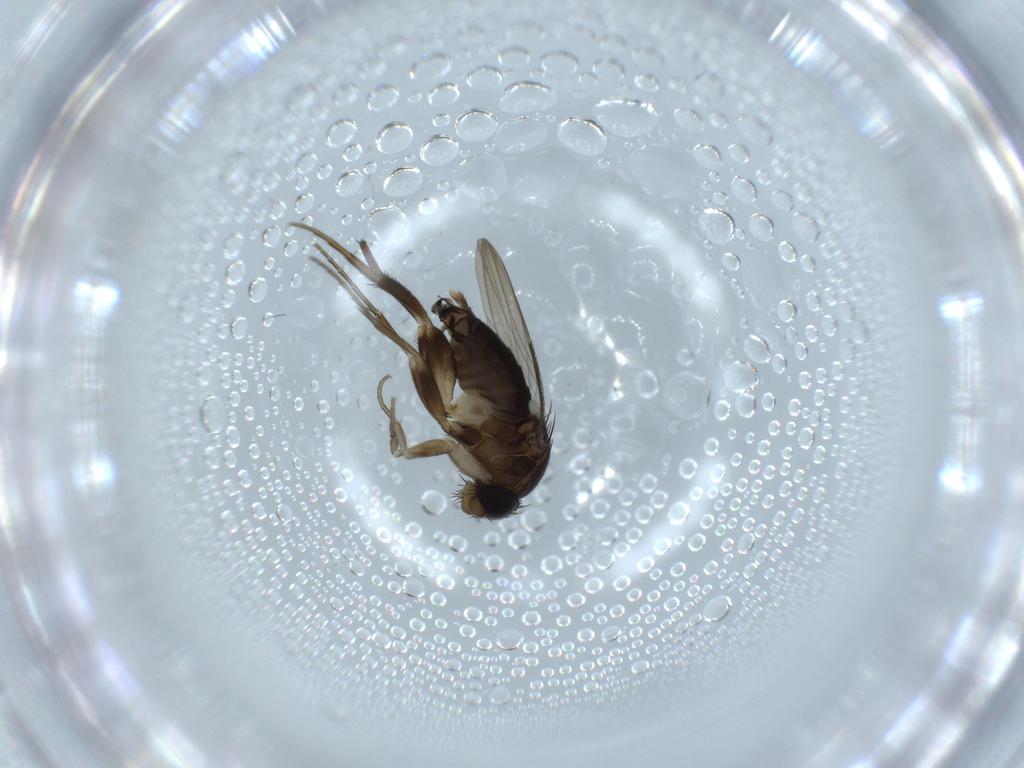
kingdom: Animalia
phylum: Arthropoda
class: Insecta
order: Diptera
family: Phoridae
